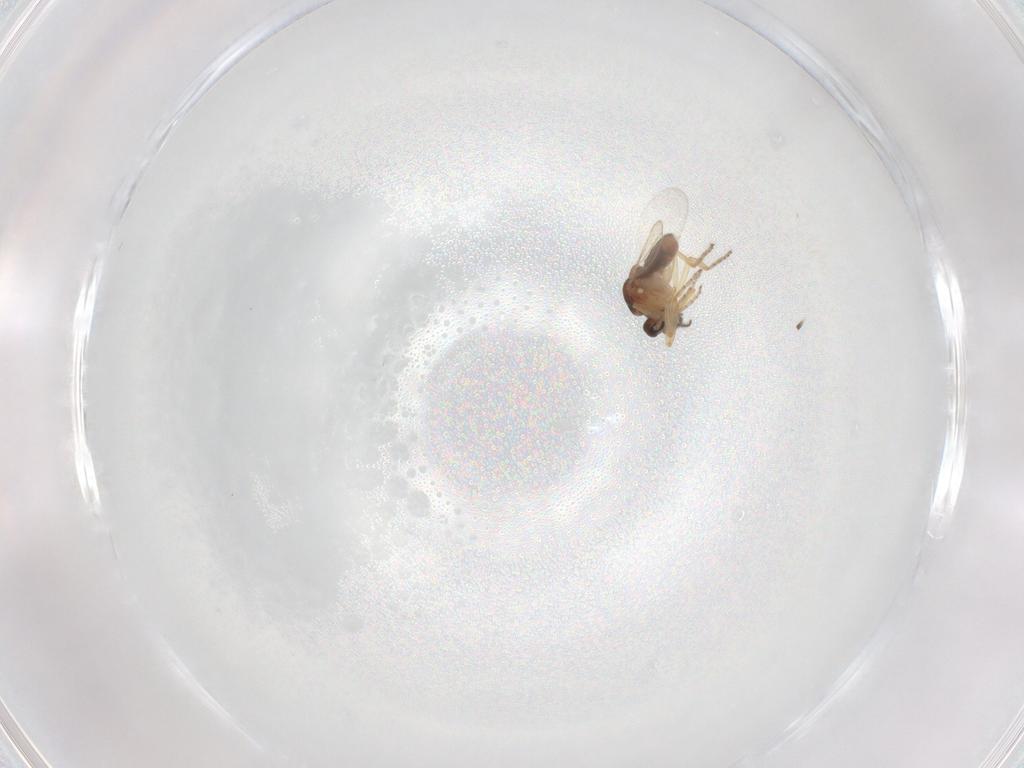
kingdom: Animalia
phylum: Arthropoda
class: Insecta
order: Diptera
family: Ceratopogonidae
